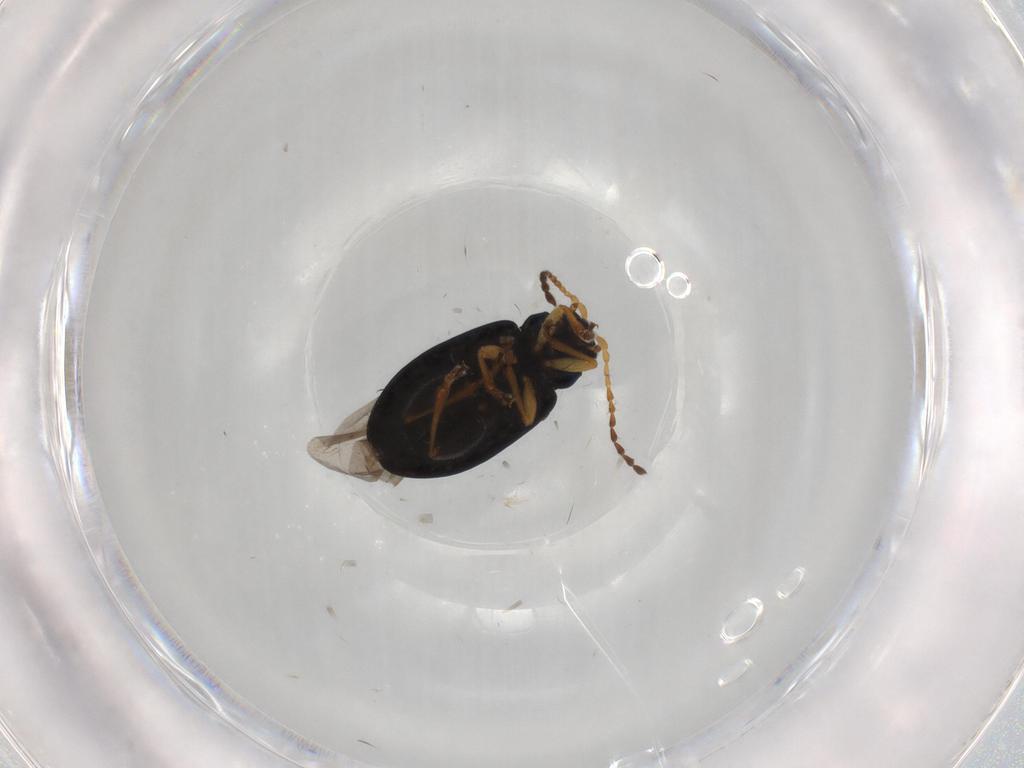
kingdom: Animalia
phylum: Arthropoda
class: Insecta
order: Coleoptera
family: Chrysomelidae
